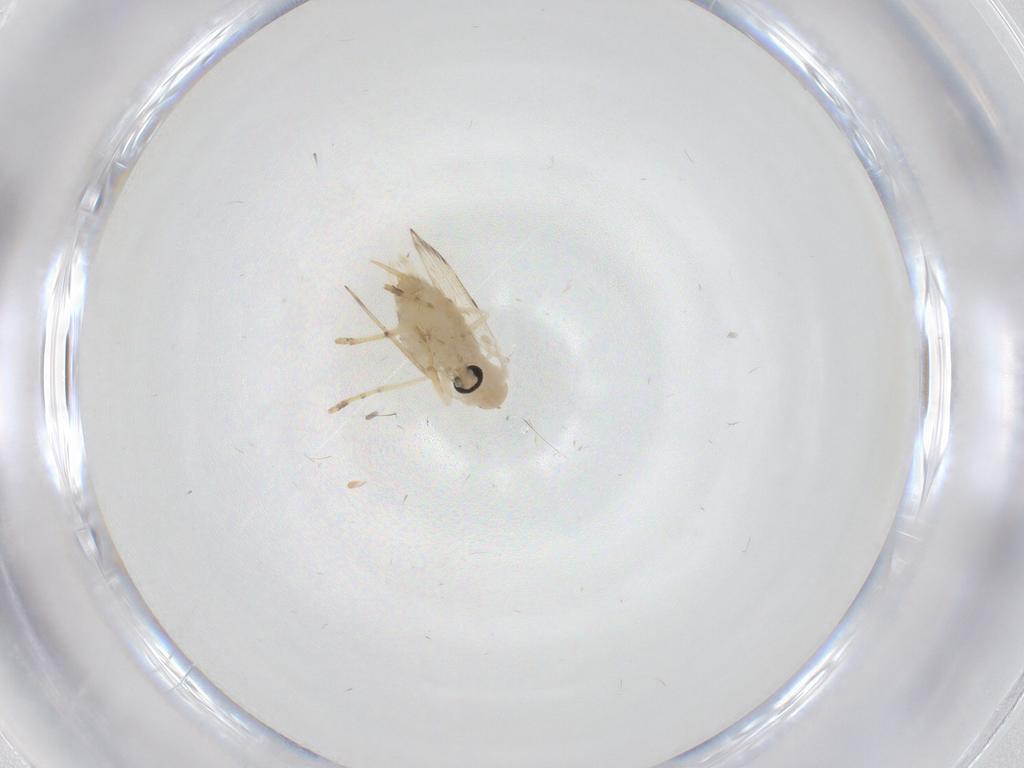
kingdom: Animalia
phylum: Arthropoda
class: Insecta
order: Diptera
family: Psychodidae
